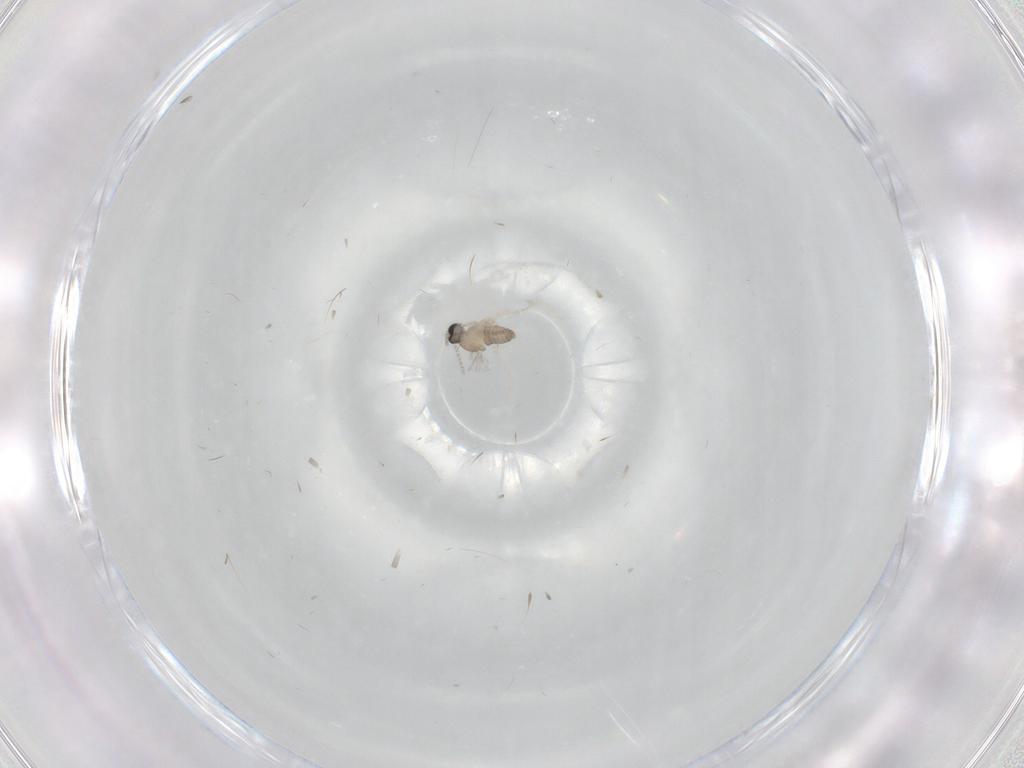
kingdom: Animalia
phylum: Arthropoda
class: Insecta
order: Diptera
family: Cecidomyiidae
